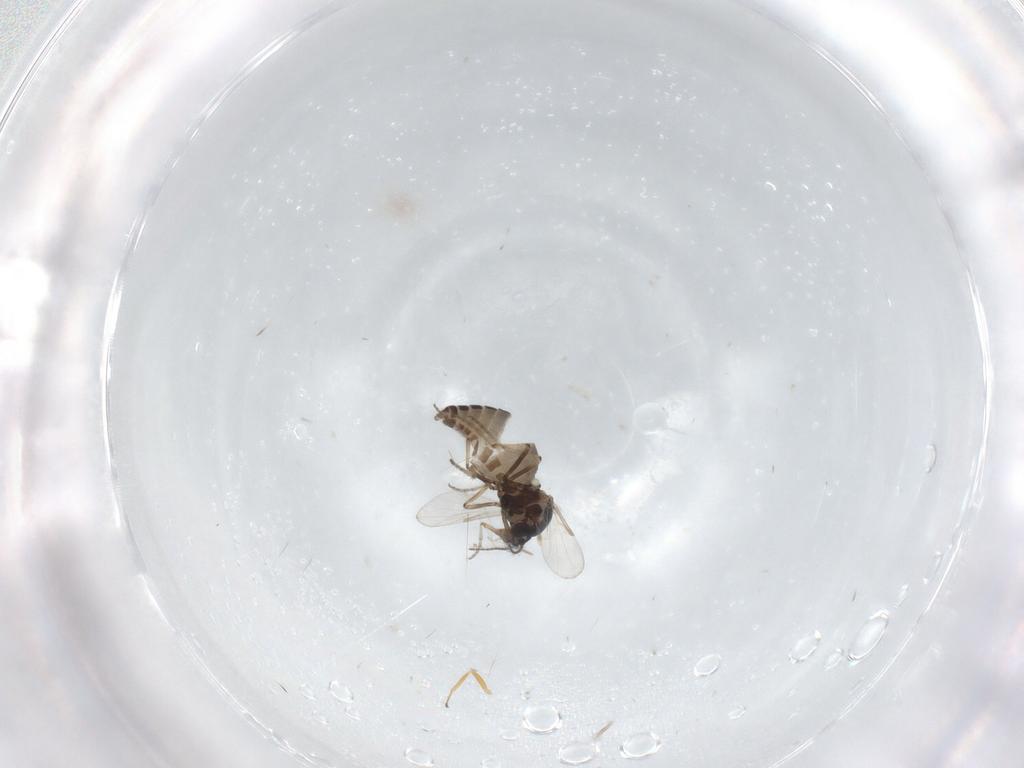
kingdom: Animalia
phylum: Arthropoda
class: Insecta
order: Diptera
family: Ceratopogonidae
